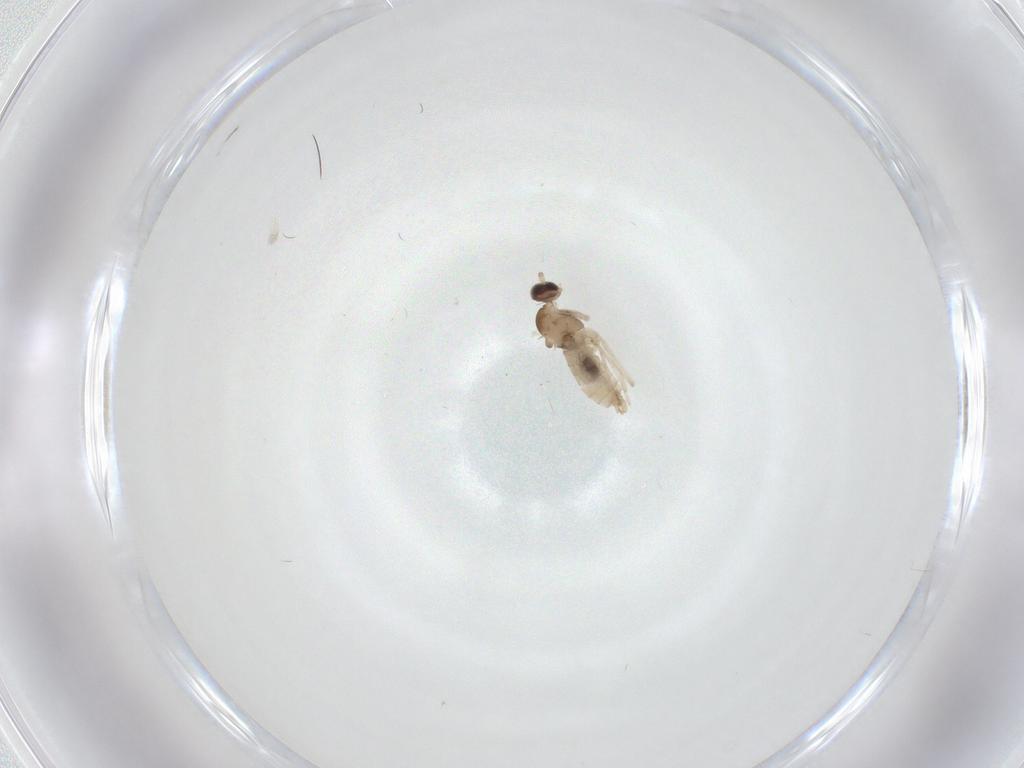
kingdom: Animalia
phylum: Arthropoda
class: Insecta
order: Diptera
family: Cecidomyiidae
